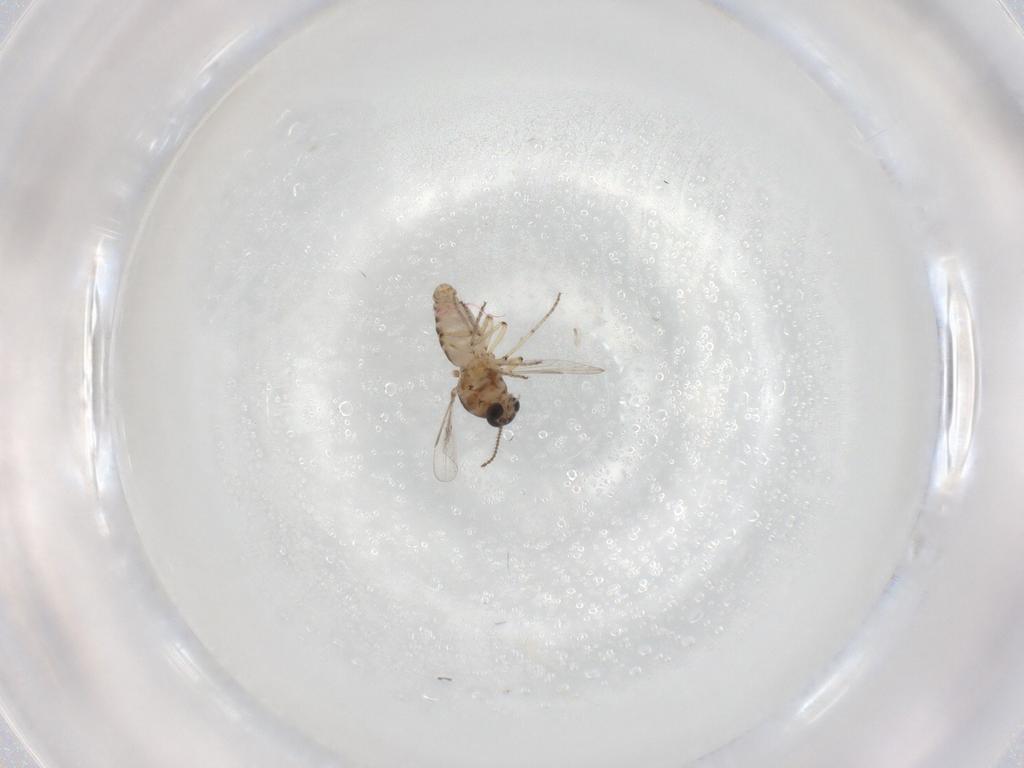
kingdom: Animalia
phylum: Arthropoda
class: Insecta
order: Diptera
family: Ceratopogonidae
